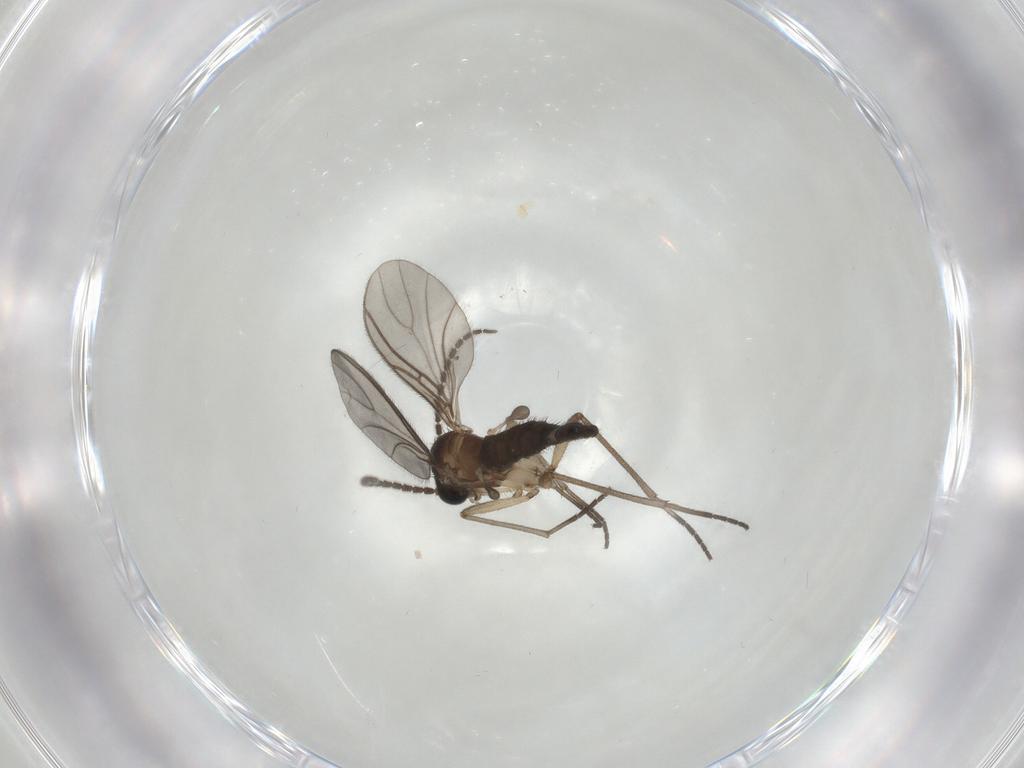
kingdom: Animalia
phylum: Arthropoda
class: Insecta
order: Diptera
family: Sciaridae
